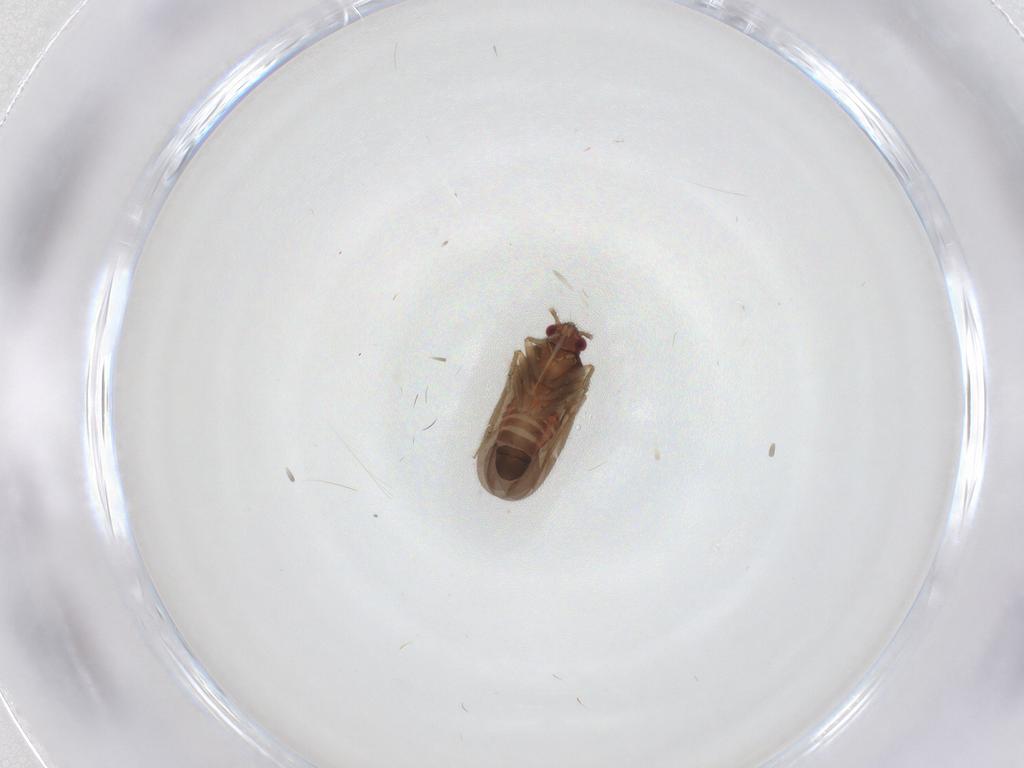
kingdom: Animalia
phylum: Arthropoda
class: Insecta
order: Hemiptera
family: Ceratocombidae
